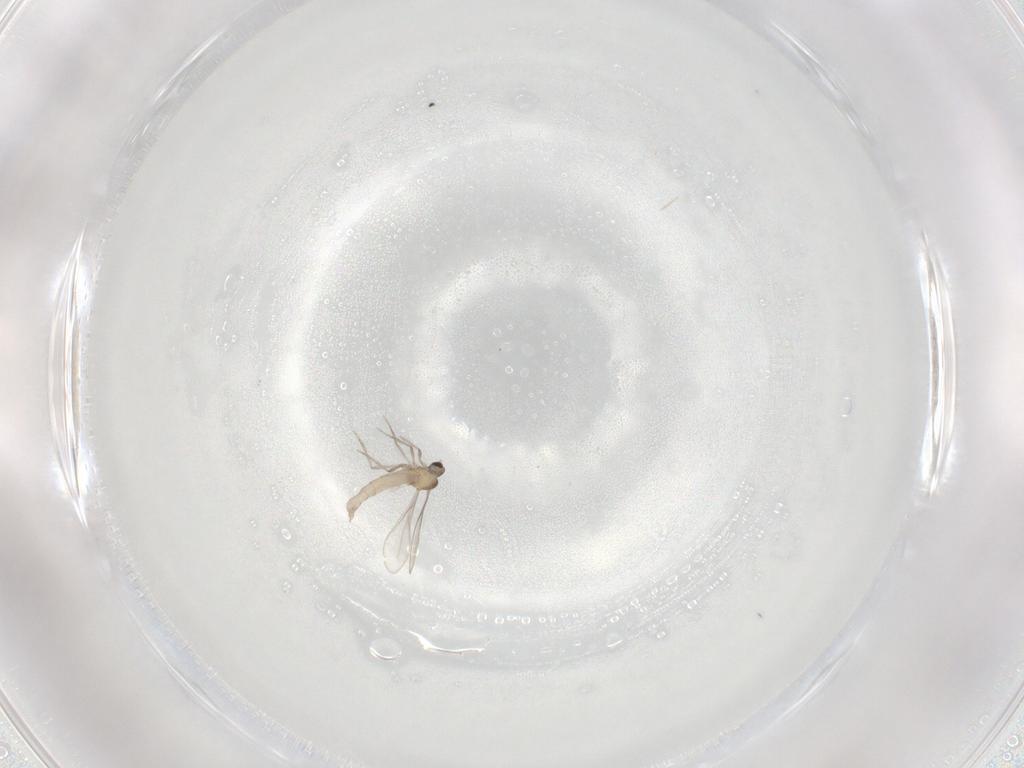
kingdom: Animalia
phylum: Arthropoda
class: Insecta
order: Diptera
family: Cecidomyiidae
